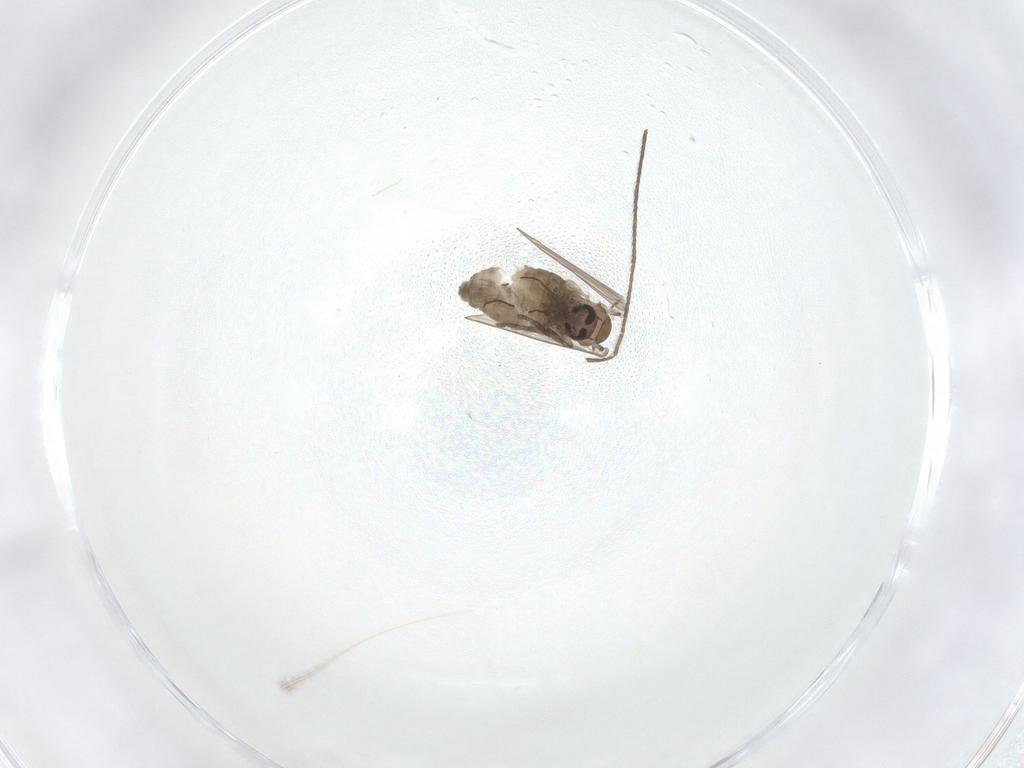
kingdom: Animalia
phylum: Arthropoda
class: Insecta
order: Diptera
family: Psychodidae
